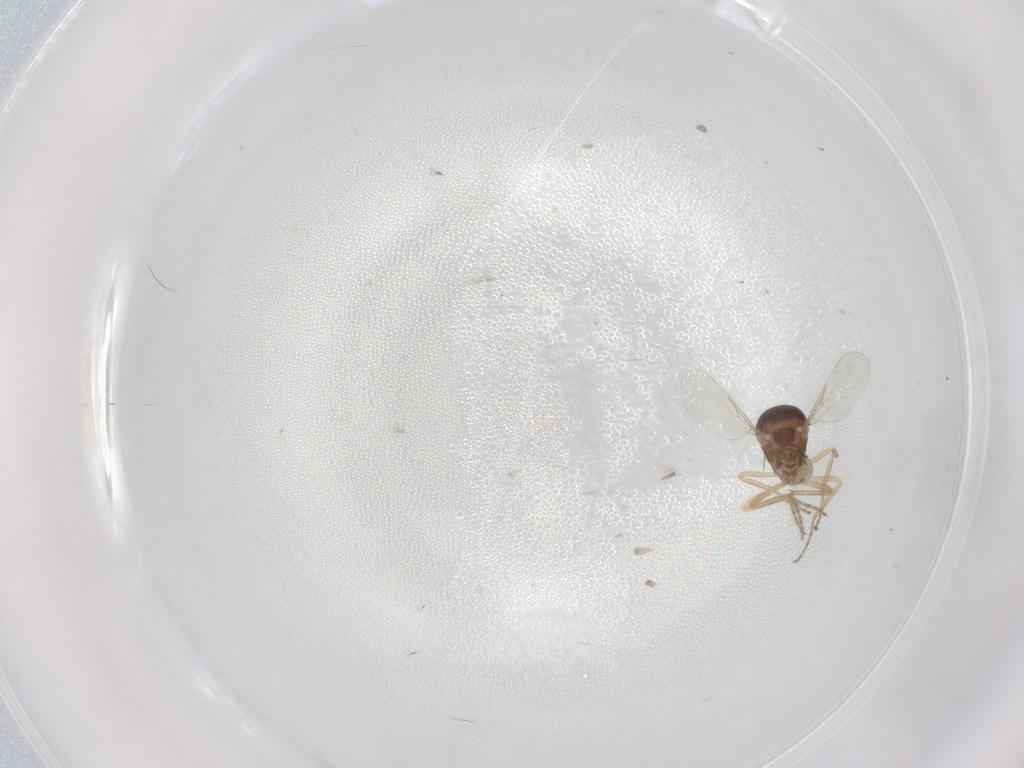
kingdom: Animalia
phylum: Arthropoda
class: Insecta
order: Diptera
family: Ceratopogonidae
